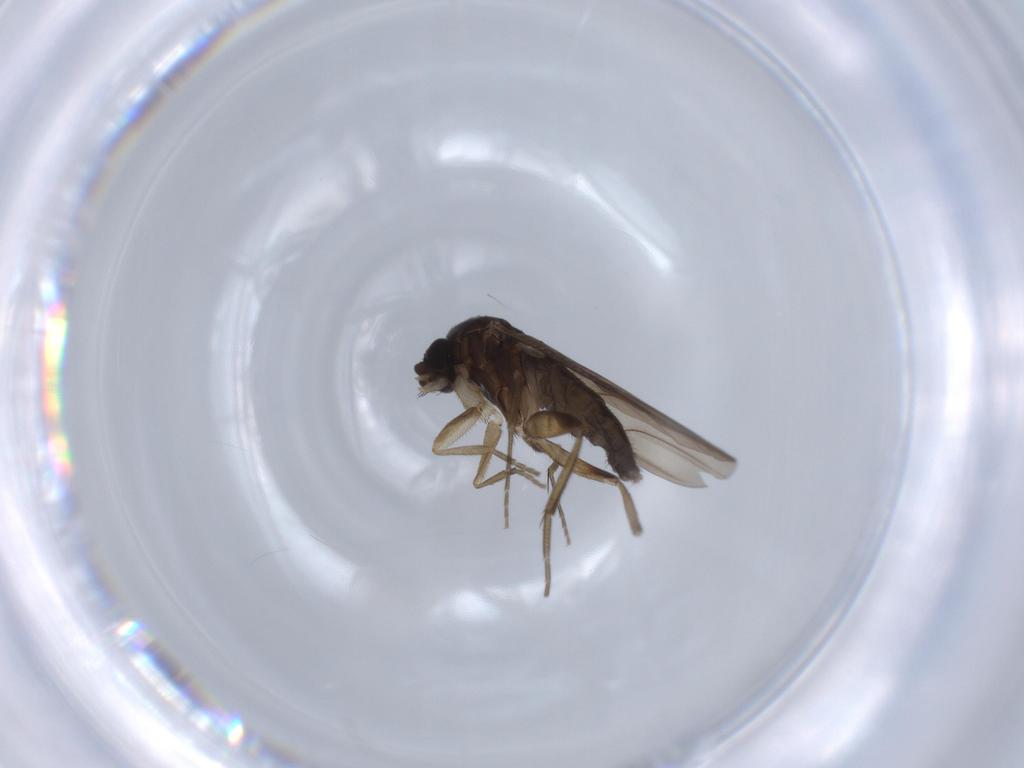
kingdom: Animalia
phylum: Arthropoda
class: Insecta
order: Diptera
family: Phoridae
